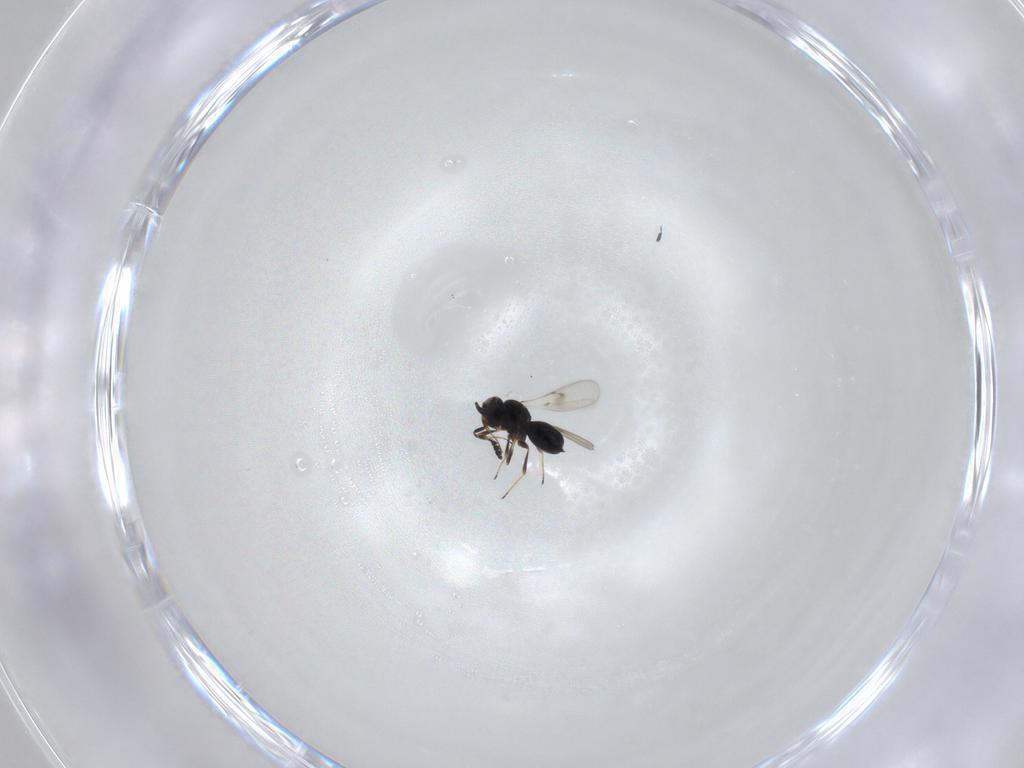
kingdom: Animalia
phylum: Arthropoda
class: Insecta
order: Hymenoptera
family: Scelionidae
